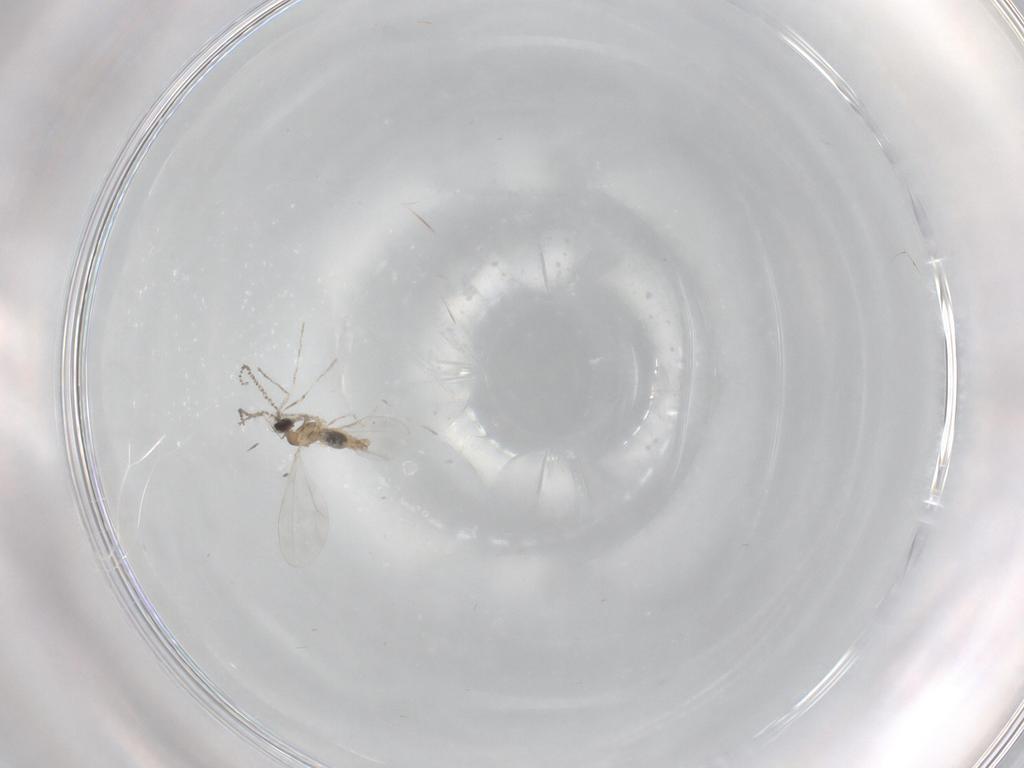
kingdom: Animalia
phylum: Arthropoda
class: Insecta
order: Diptera
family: Cecidomyiidae
